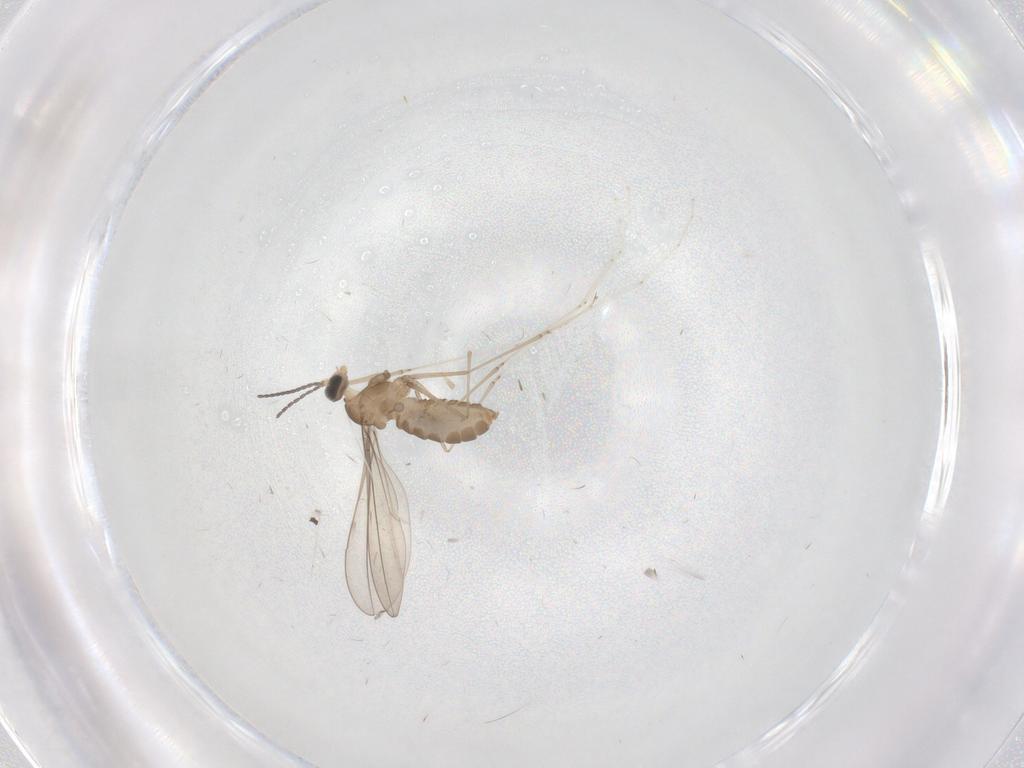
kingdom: Animalia
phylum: Arthropoda
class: Insecta
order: Diptera
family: Cecidomyiidae
